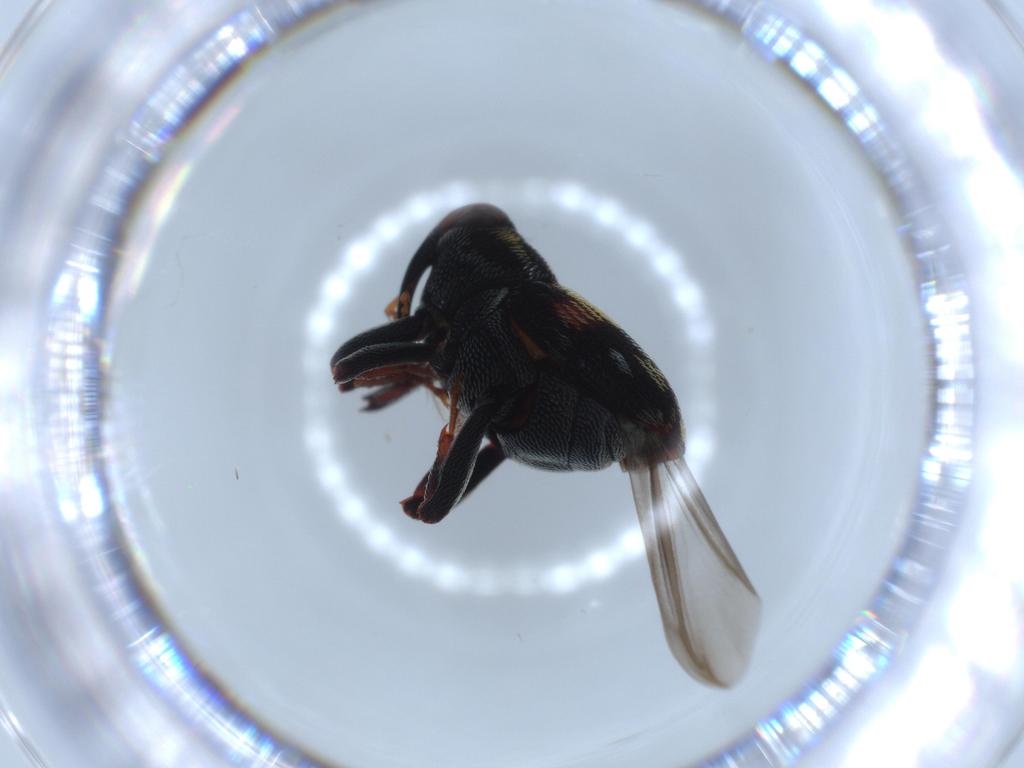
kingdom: Animalia
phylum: Arthropoda
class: Insecta
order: Coleoptera
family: Curculionidae
